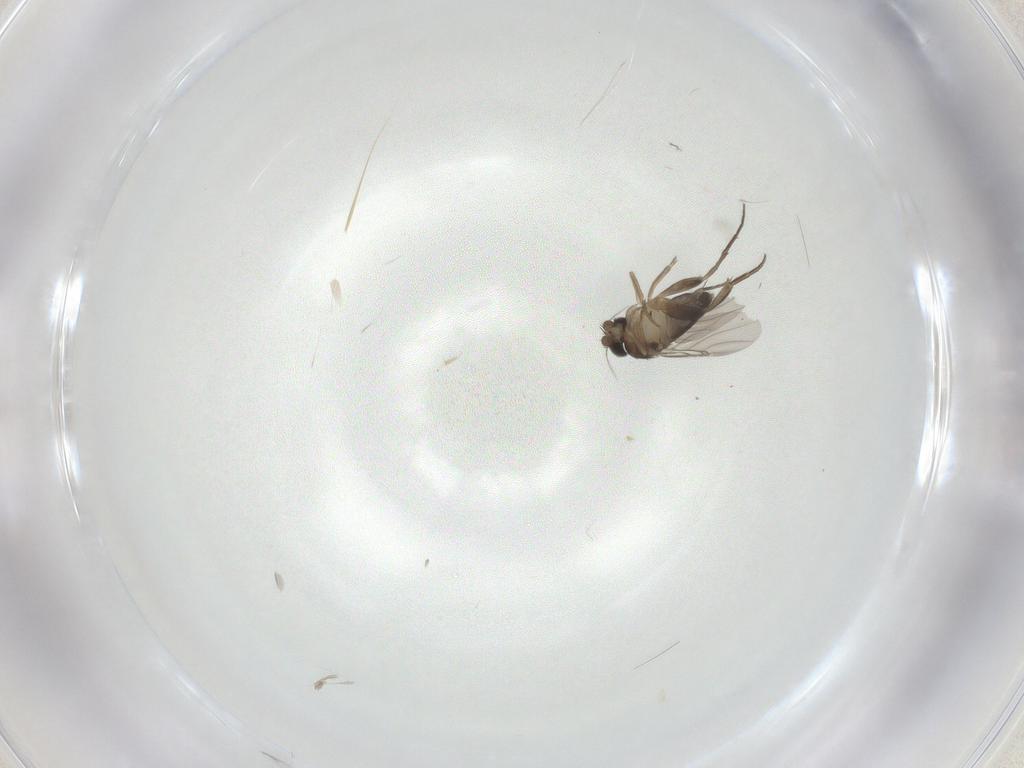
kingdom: Animalia
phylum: Arthropoda
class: Insecta
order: Diptera
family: Phoridae
